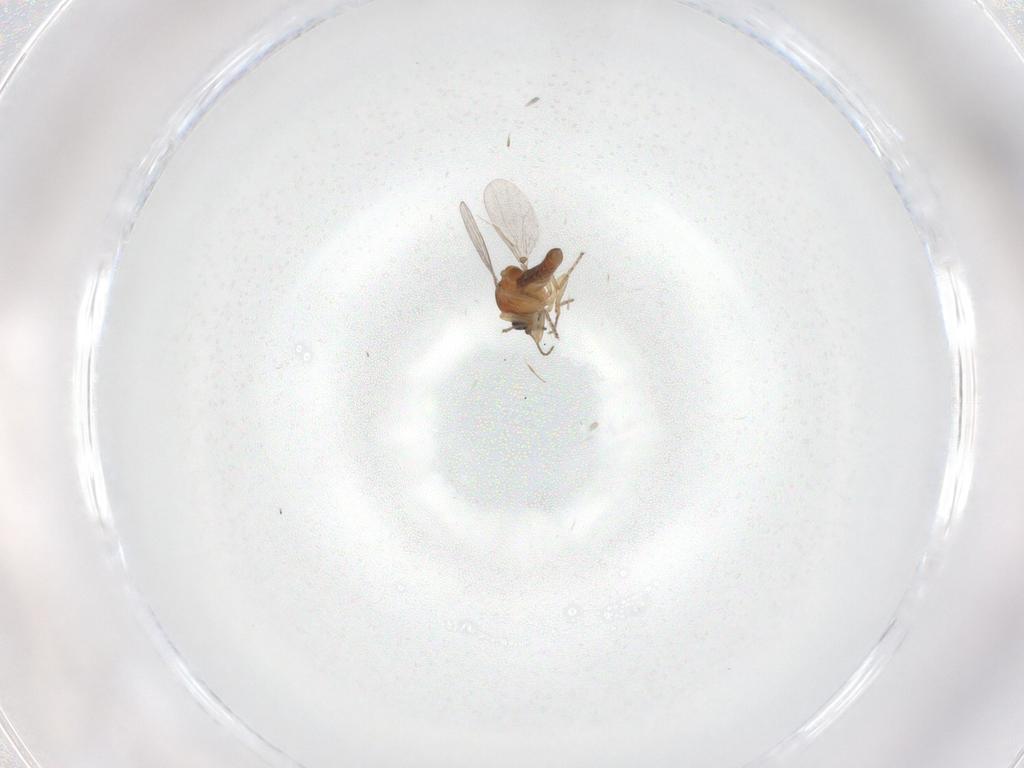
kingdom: Animalia
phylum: Arthropoda
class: Insecta
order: Diptera
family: Ceratopogonidae
